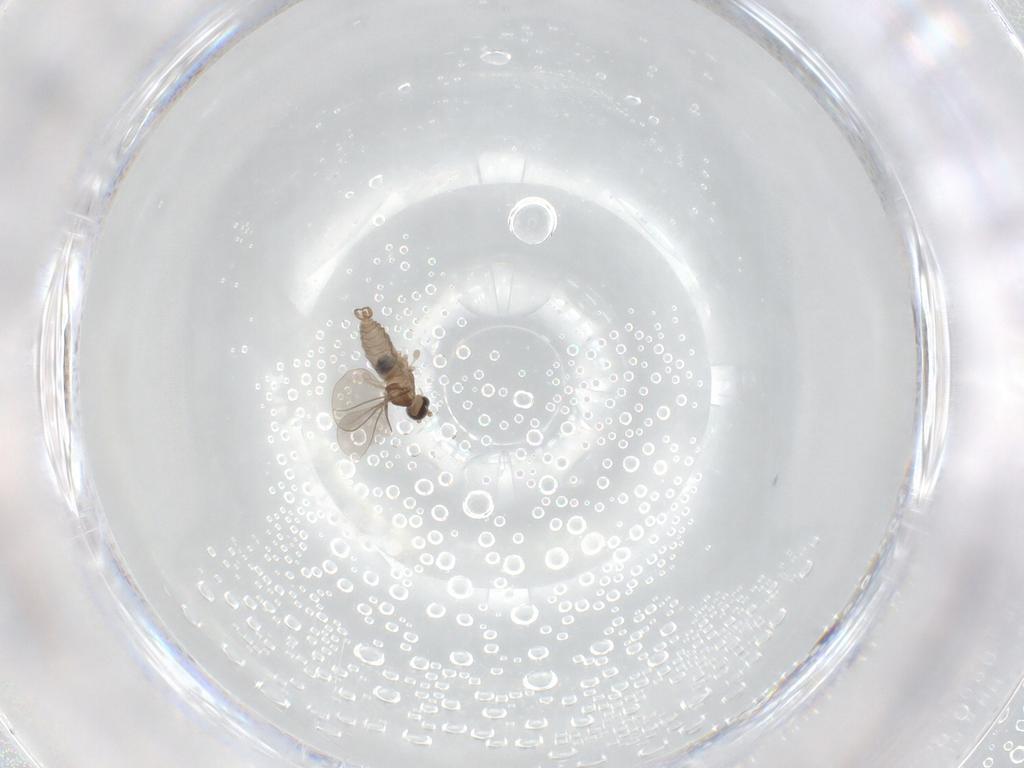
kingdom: Animalia
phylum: Arthropoda
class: Insecta
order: Diptera
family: Cecidomyiidae
